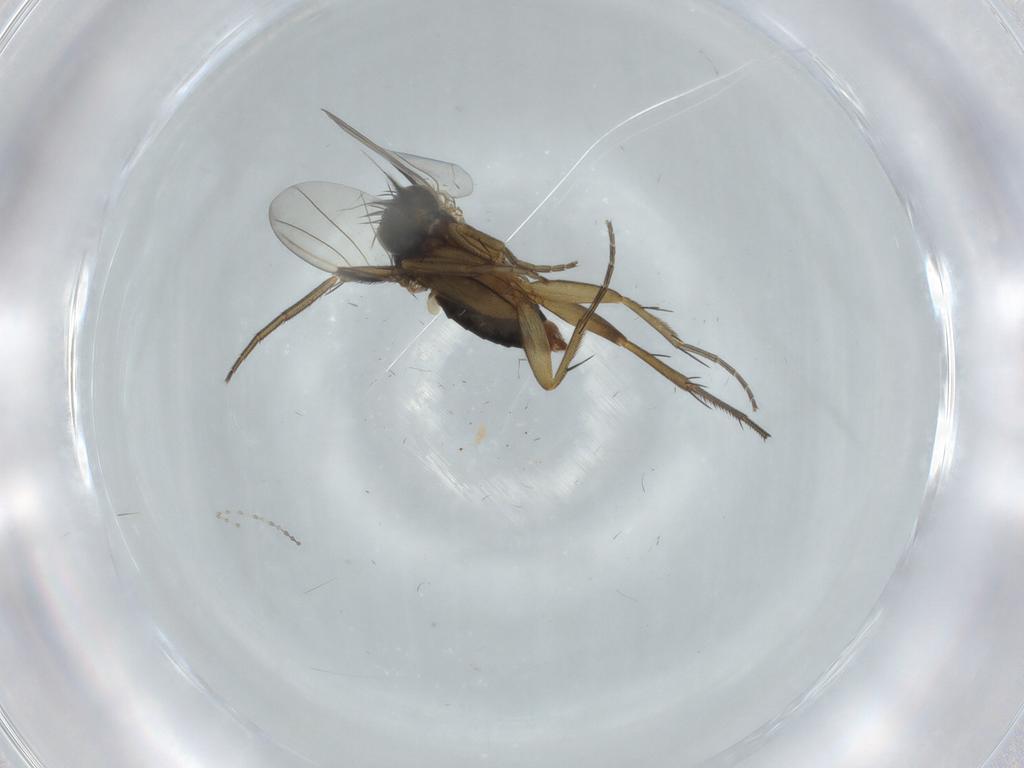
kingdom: Animalia
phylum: Arthropoda
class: Insecta
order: Diptera
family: Phoridae
